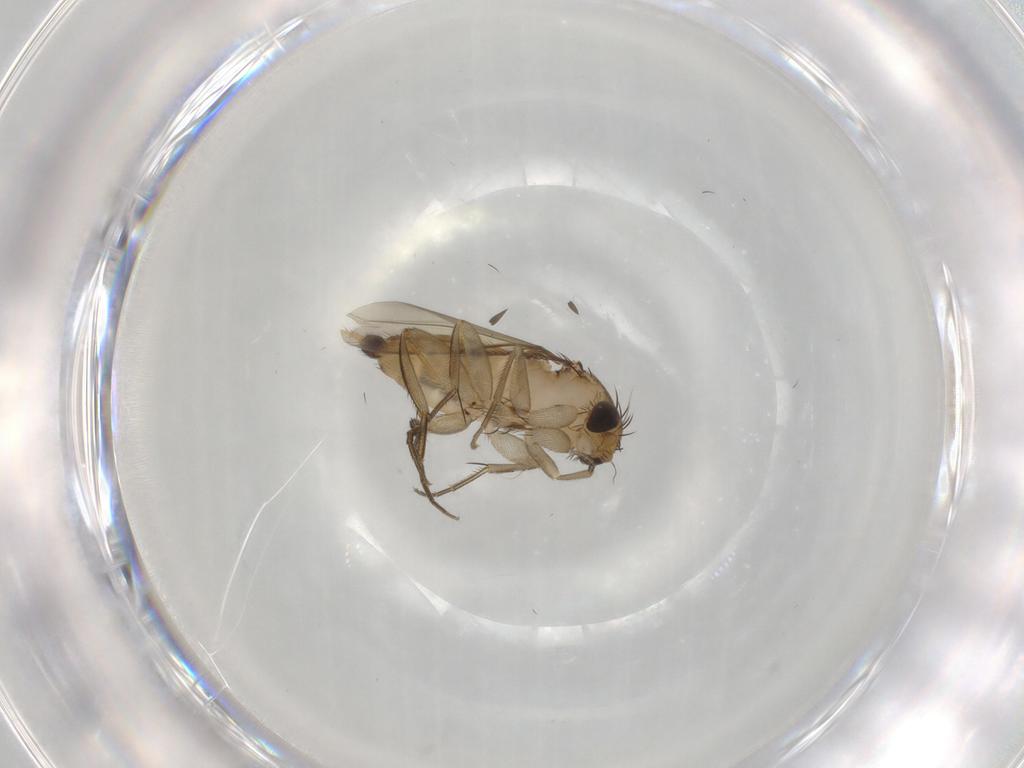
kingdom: Animalia
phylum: Arthropoda
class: Insecta
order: Diptera
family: Phoridae
